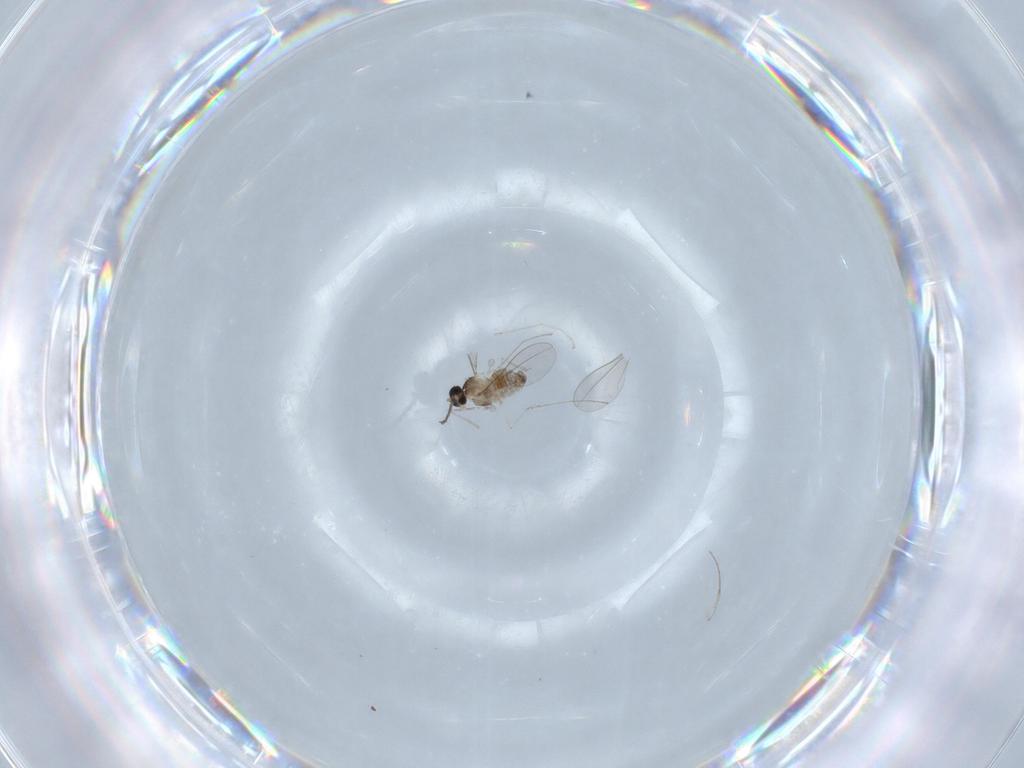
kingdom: Animalia
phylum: Arthropoda
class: Insecta
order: Diptera
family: Cecidomyiidae
